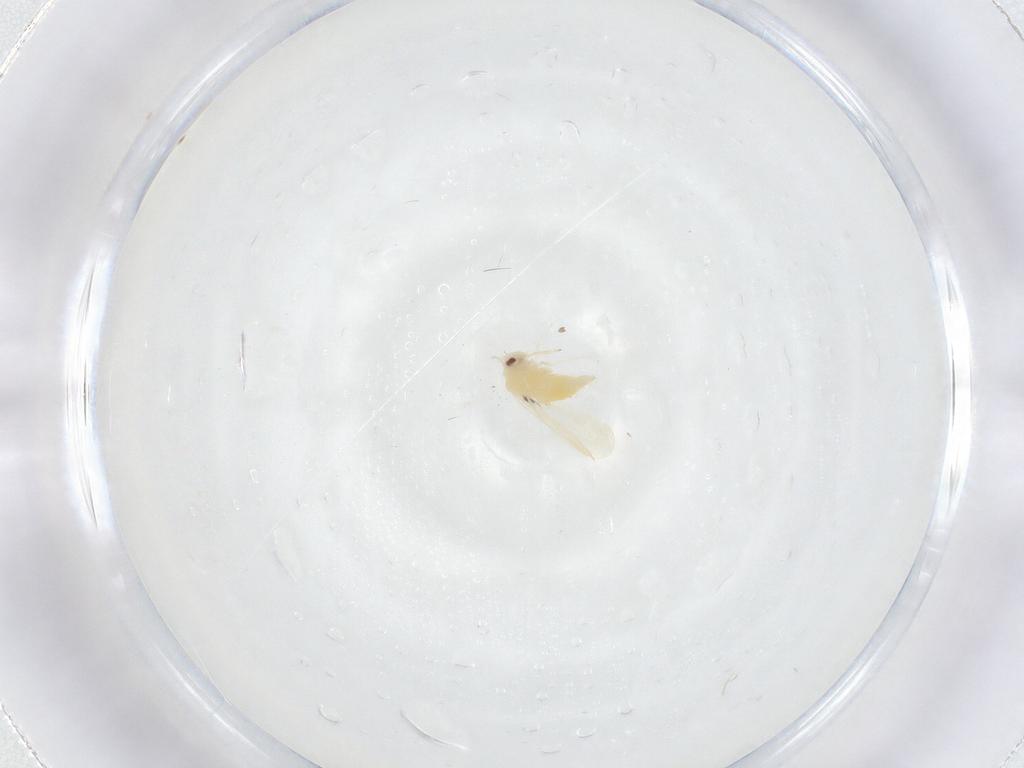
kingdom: Animalia
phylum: Arthropoda
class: Insecta
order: Hemiptera
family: Aleyrodidae
